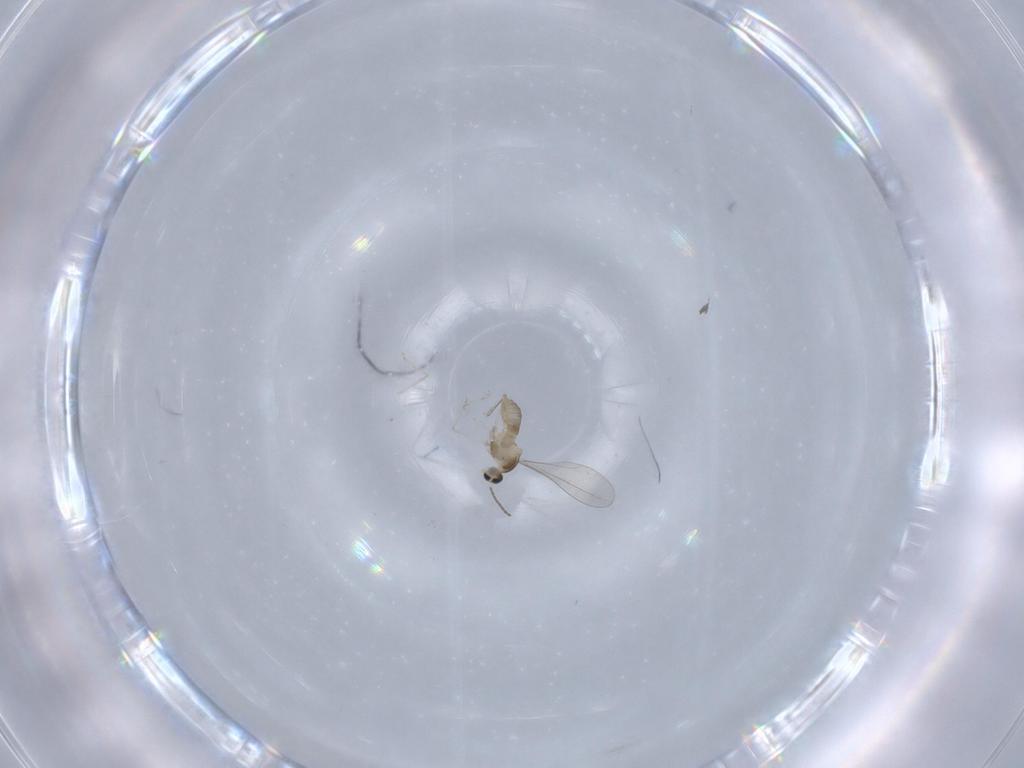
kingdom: Animalia
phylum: Arthropoda
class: Insecta
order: Diptera
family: Cecidomyiidae
